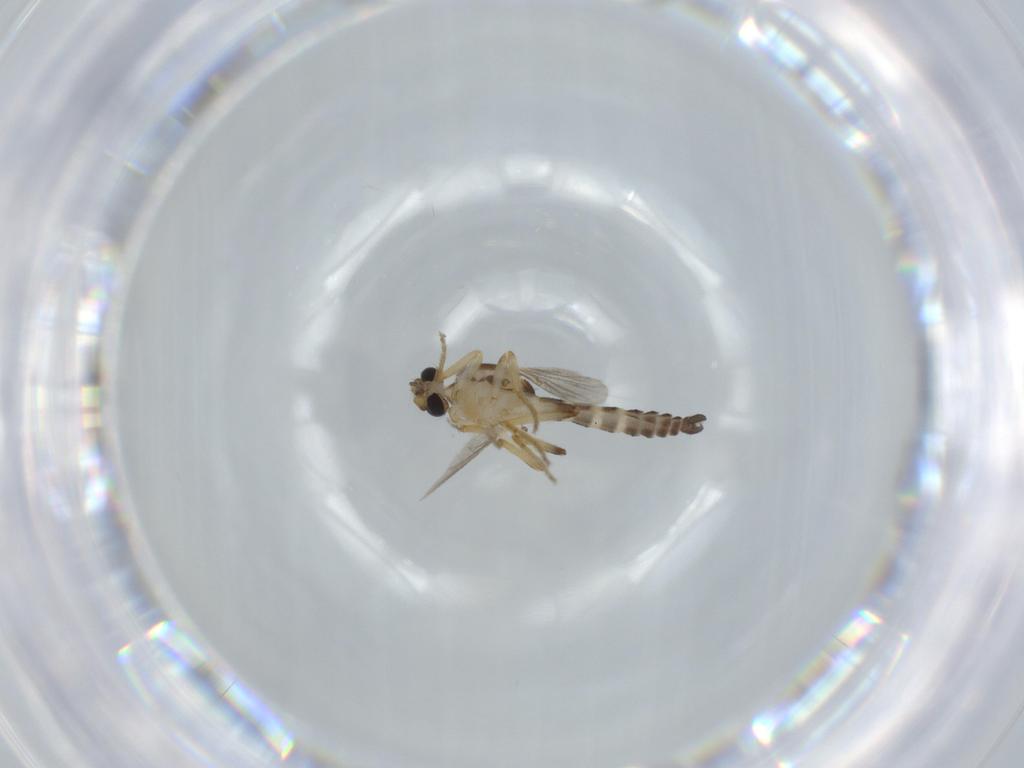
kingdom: Animalia
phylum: Arthropoda
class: Insecta
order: Diptera
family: Ceratopogonidae
